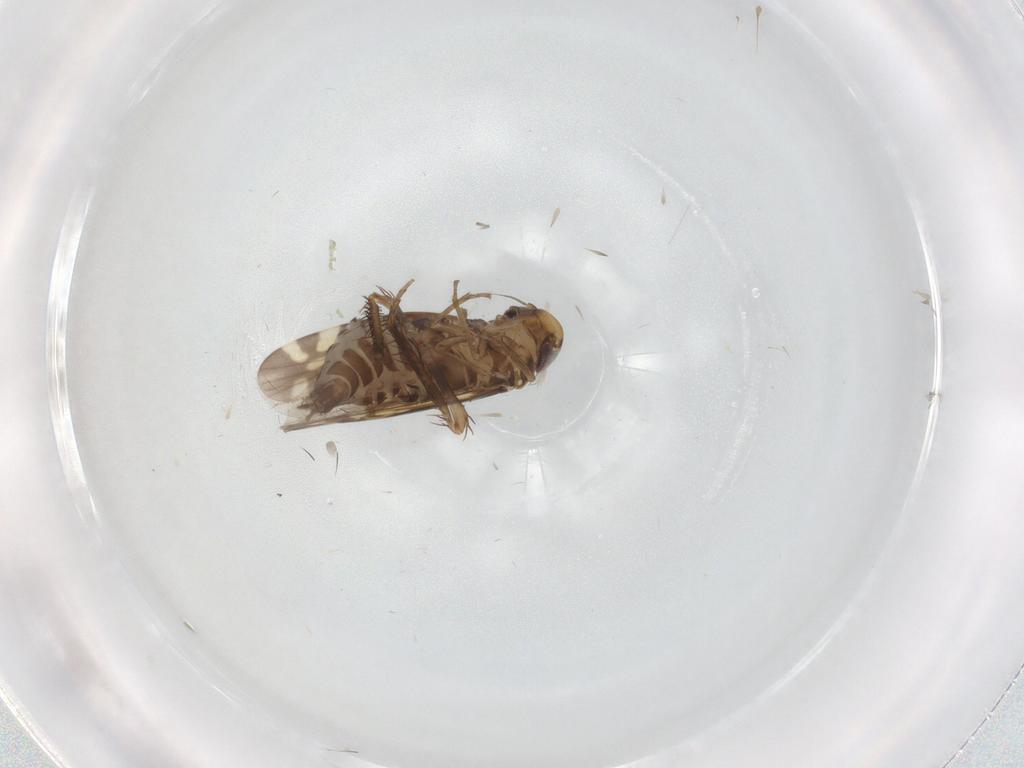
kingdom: Animalia
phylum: Arthropoda
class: Insecta
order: Hemiptera
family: Cicadellidae
